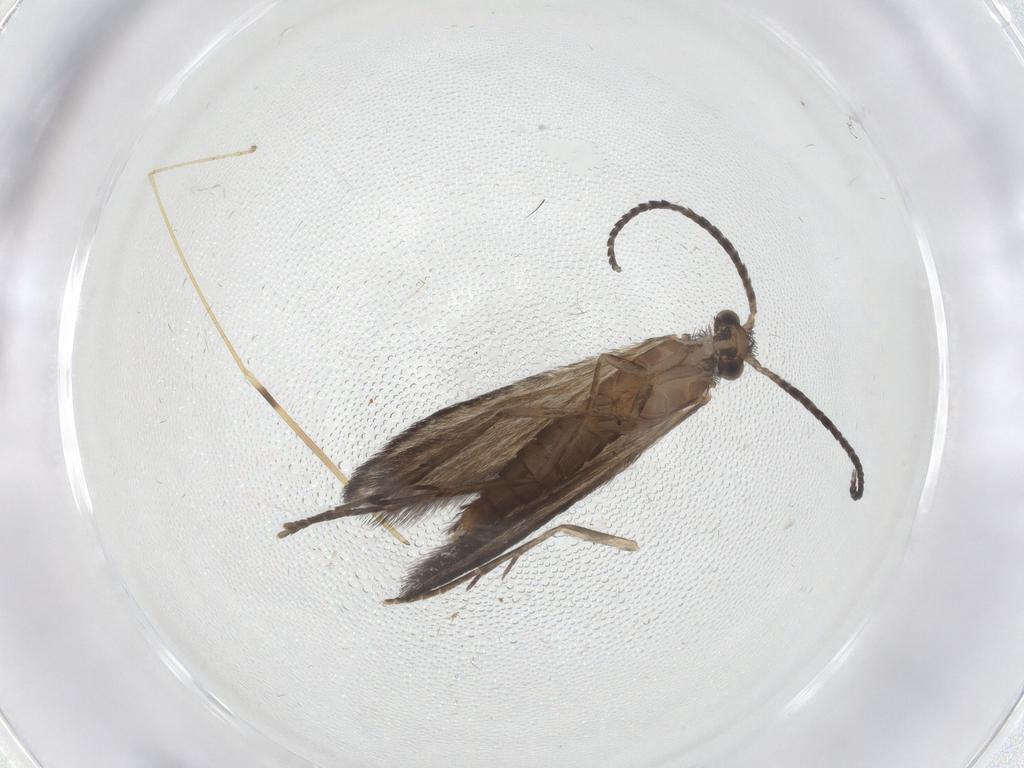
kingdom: Animalia
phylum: Arthropoda
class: Insecta
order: Trichoptera
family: Xiphocentronidae
